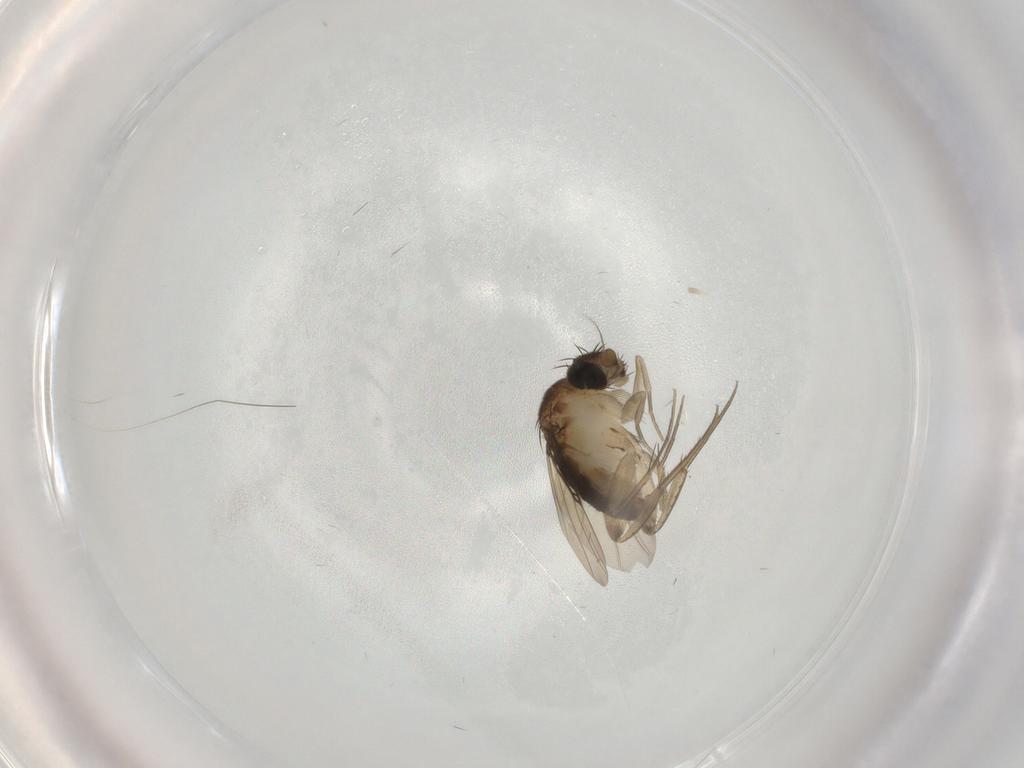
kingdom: Animalia
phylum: Arthropoda
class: Insecta
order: Diptera
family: Phoridae
